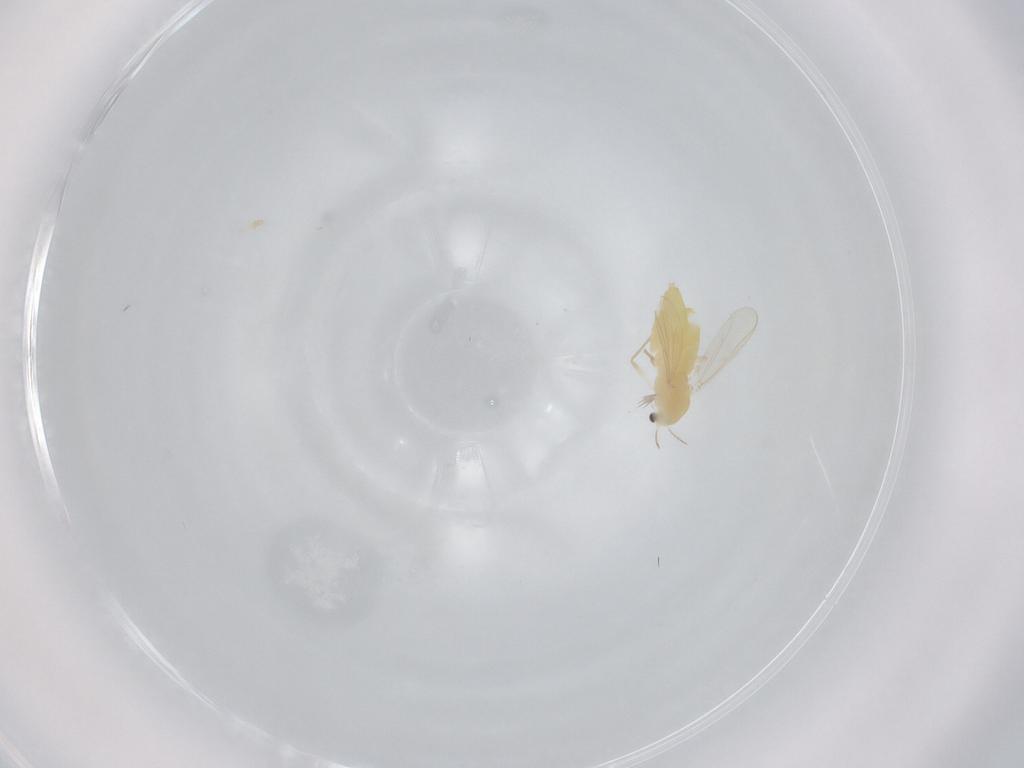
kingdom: Animalia
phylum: Arthropoda
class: Insecta
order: Diptera
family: Chironomidae
